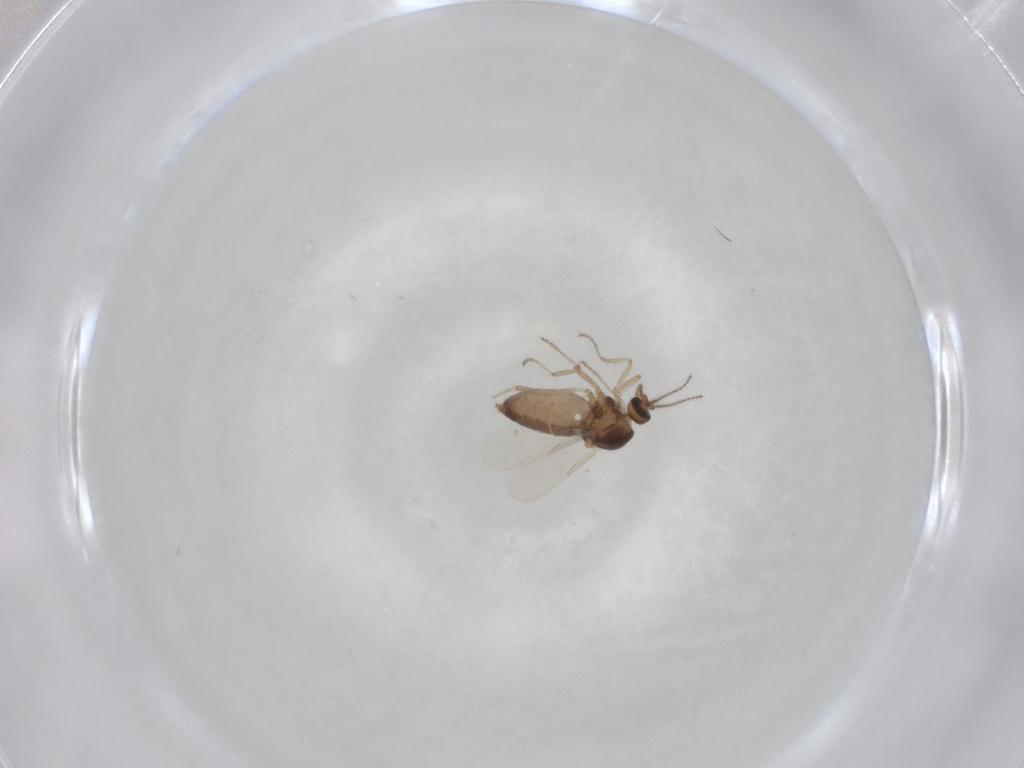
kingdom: Animalia
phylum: Arthropoda
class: Insecta
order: Diptera
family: Ceratopogonidae
